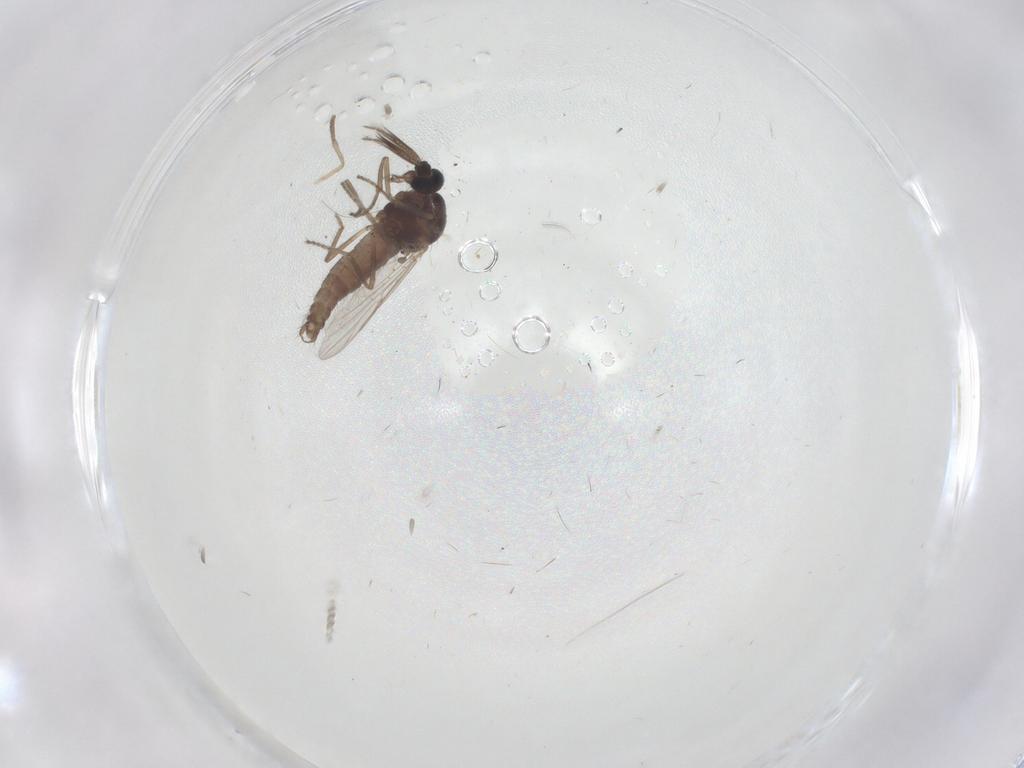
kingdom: Animalia
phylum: Arthropoda
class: Insecta
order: Diptera
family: Psychodidae
